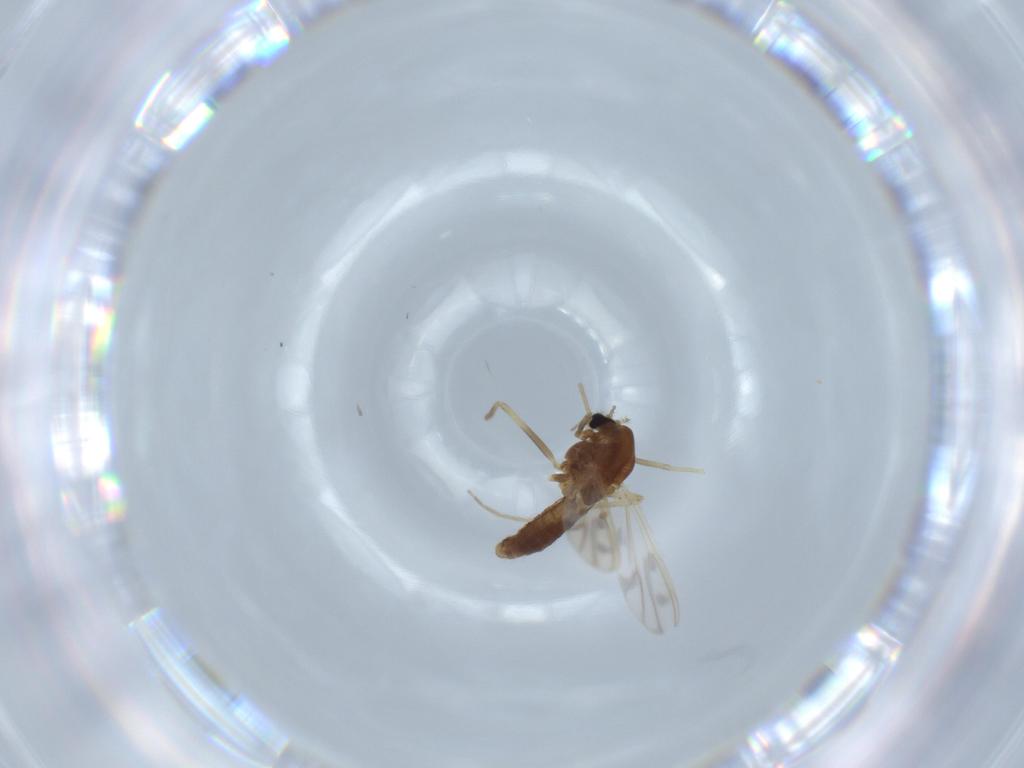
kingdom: Animalia
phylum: Arthropoda
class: Insecta
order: Diptera
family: Chironomidae
